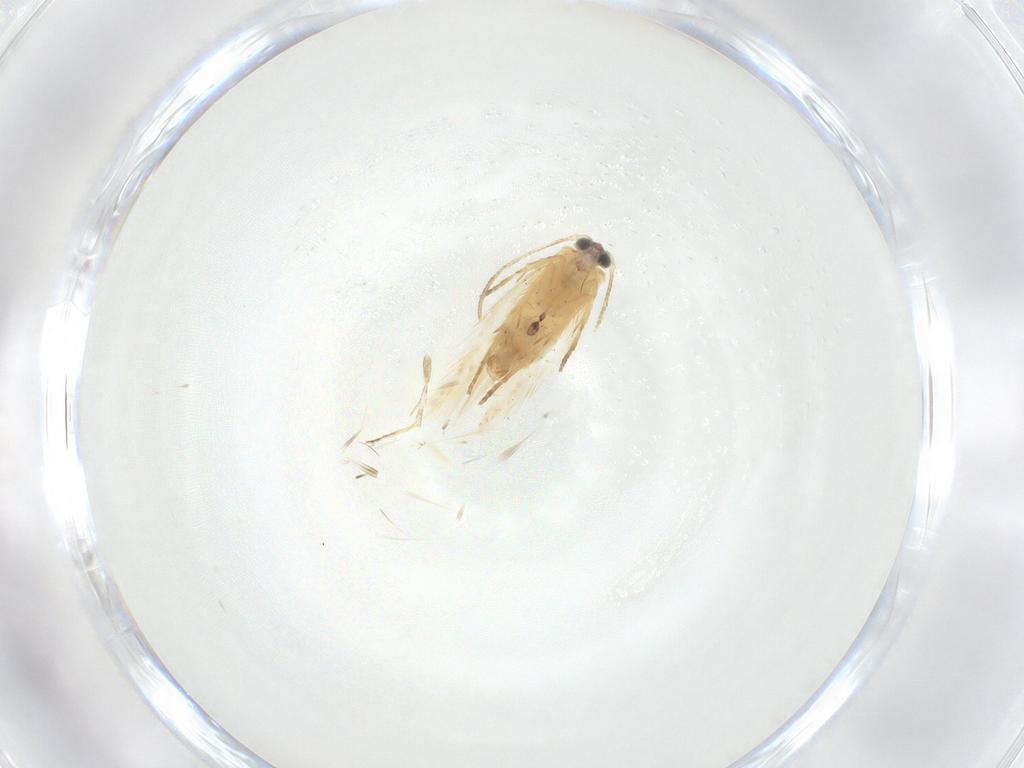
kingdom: Animalia
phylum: Arthropoda
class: Insecta
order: Lepidoptera
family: Nepticulidae
